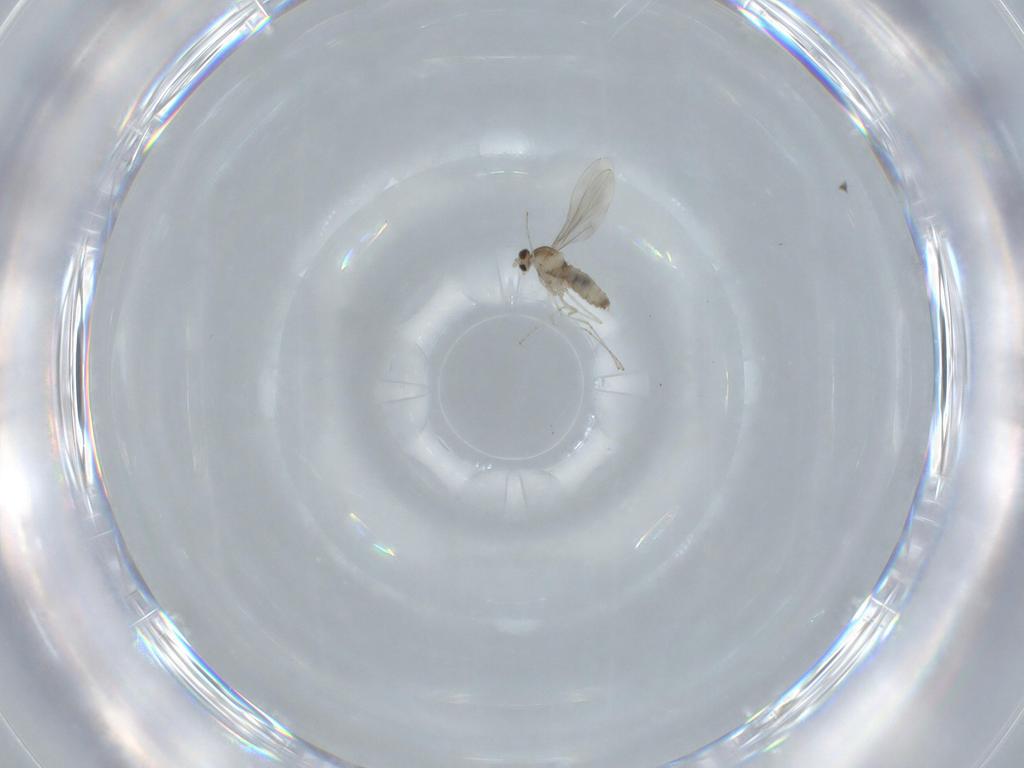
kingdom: Animalia
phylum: Arthropoda
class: Insecta
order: Diptera
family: Cecidomyiidae
